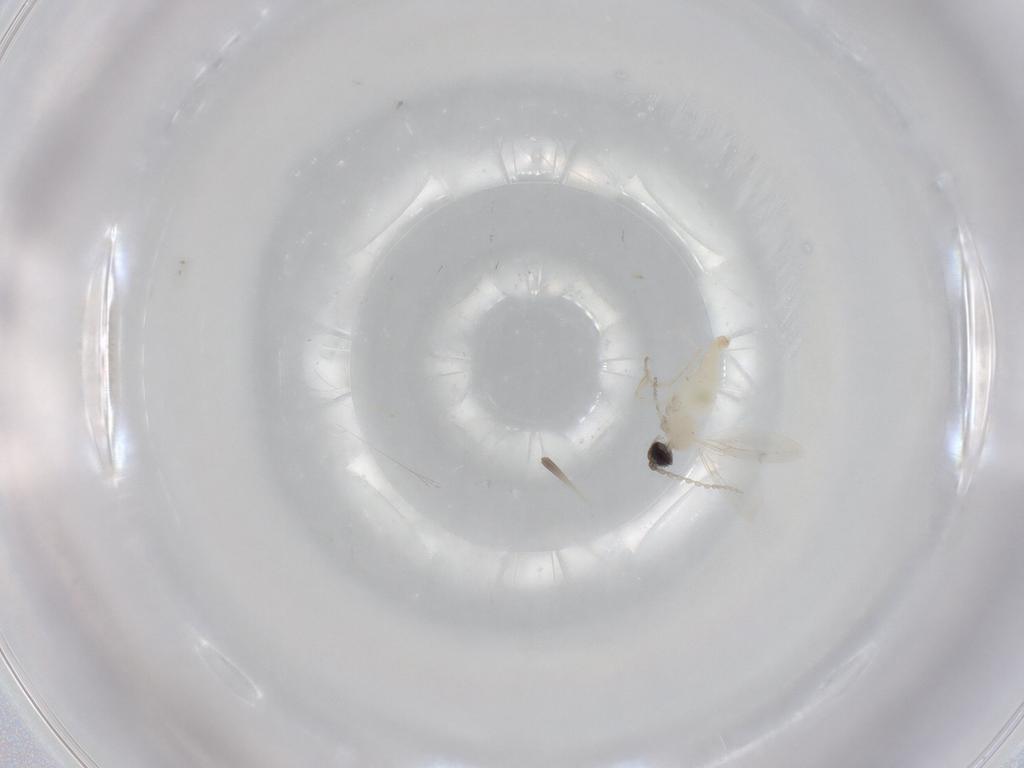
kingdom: Animalia
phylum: Arthropoda
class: Insecta
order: Diptera
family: Cecidomyiidae
